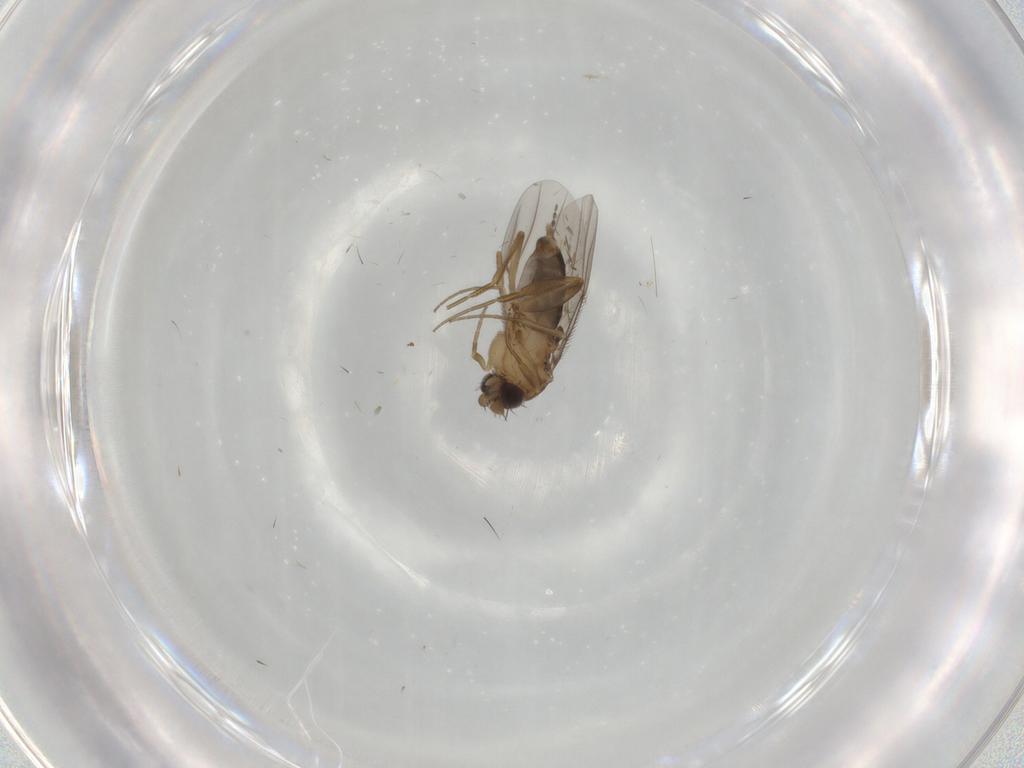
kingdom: Animalia
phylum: Arthropoda
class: Insecta
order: Diptera
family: Phoridae
